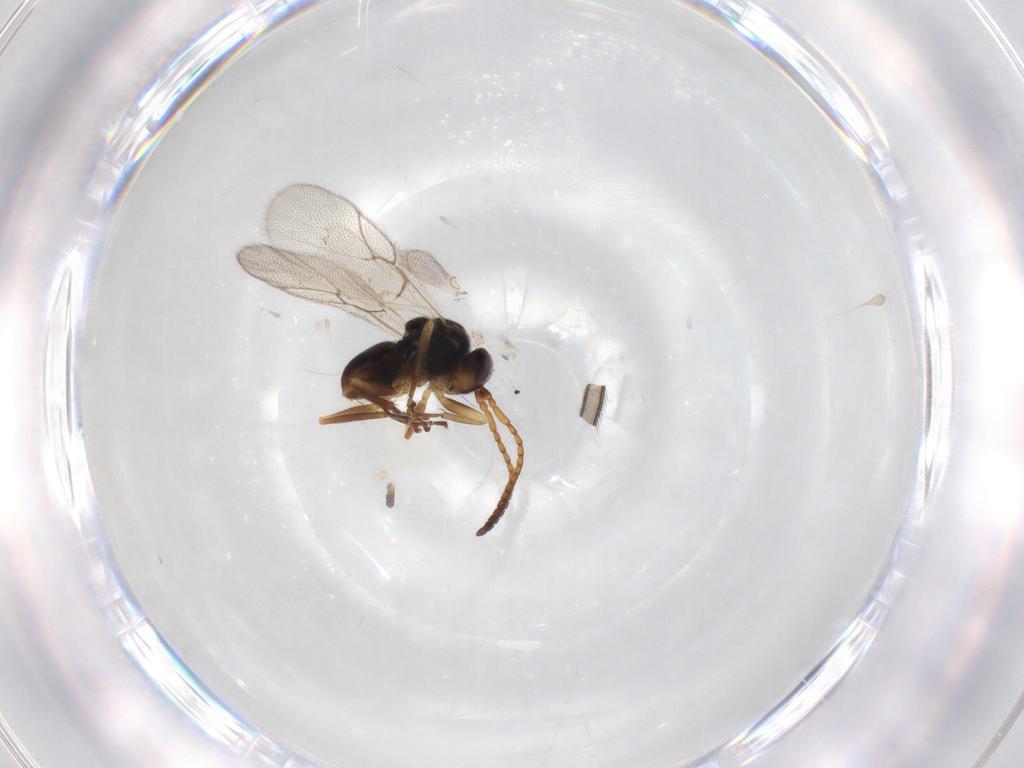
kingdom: Animalia
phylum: Arthropoda
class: Insecta
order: Hymenoptera
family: Cynipidae
